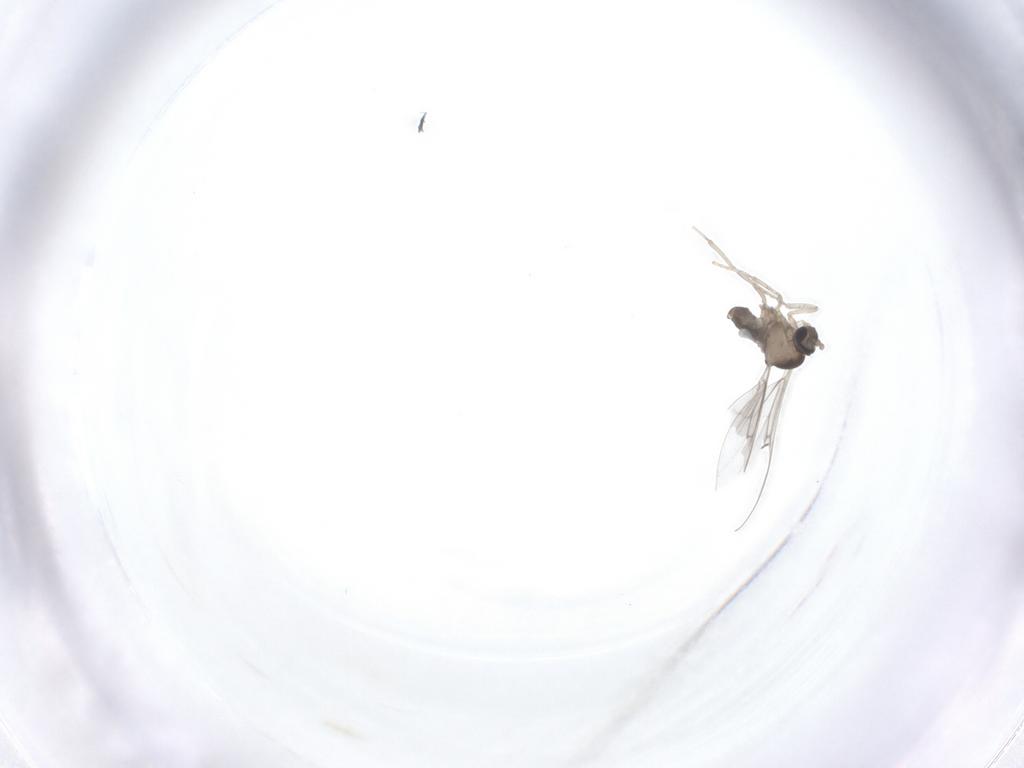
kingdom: Animalia
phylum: Arthropoda
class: Insecta
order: Diptera
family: Cecidomyiidae
